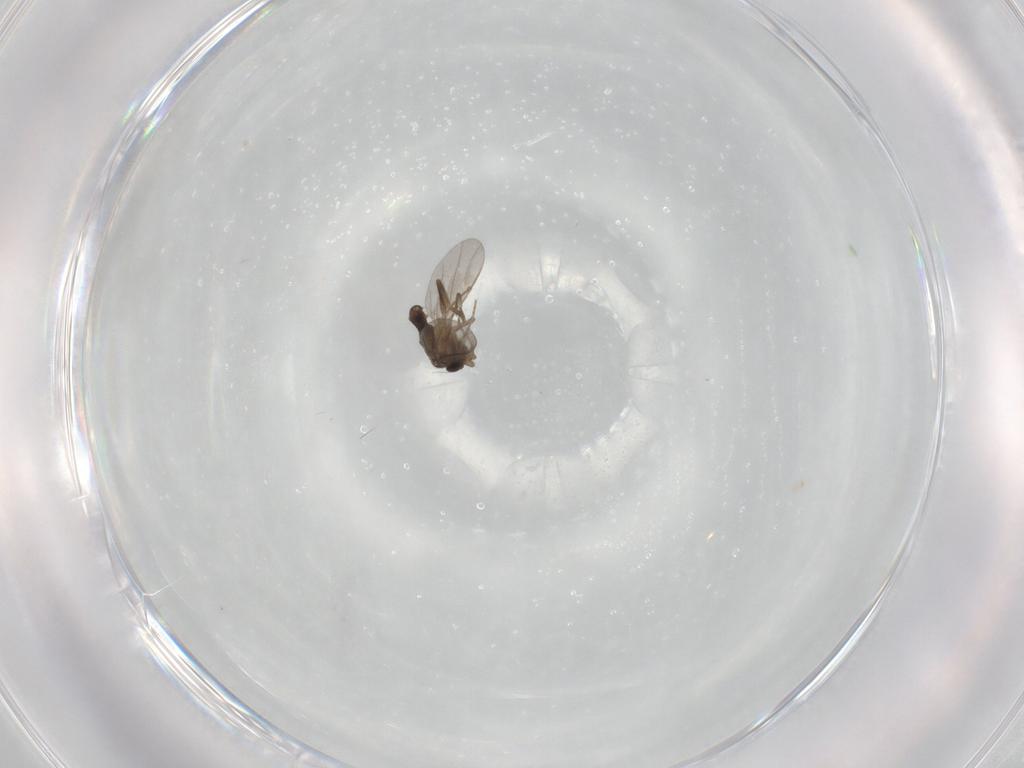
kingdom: Animalia
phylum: Arthropoda
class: Insecta
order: Diptera
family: Phoridae
